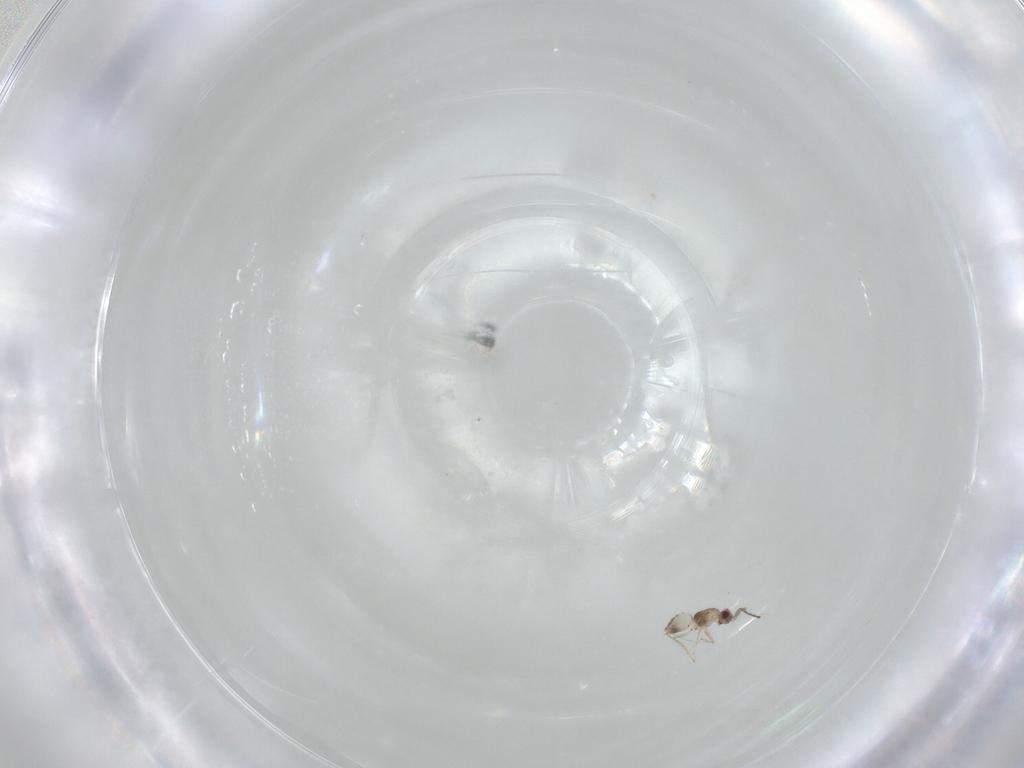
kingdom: Animalia
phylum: Arthropoda
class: Insecta
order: Hymenoptera
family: Mymaridae
